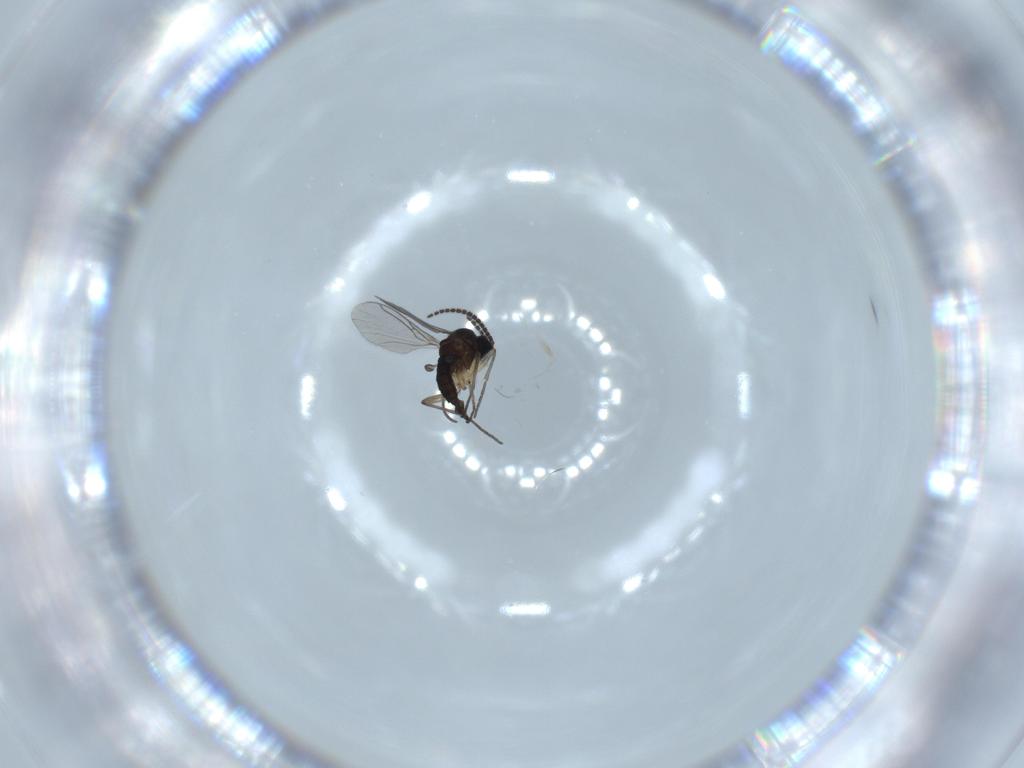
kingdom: Animalia
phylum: Arthropoda
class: Insecta
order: Diptera
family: Sciaridae
